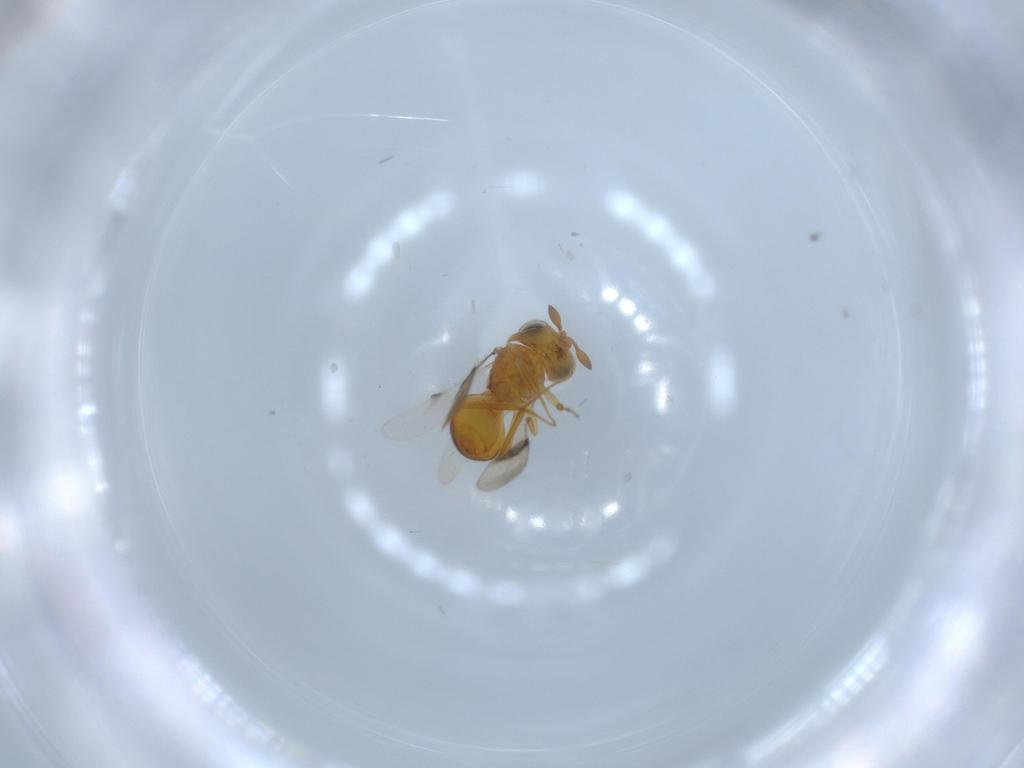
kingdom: Animalia
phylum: Arthropoda
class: Insecta
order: Hymenoptera
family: Scelionidae
